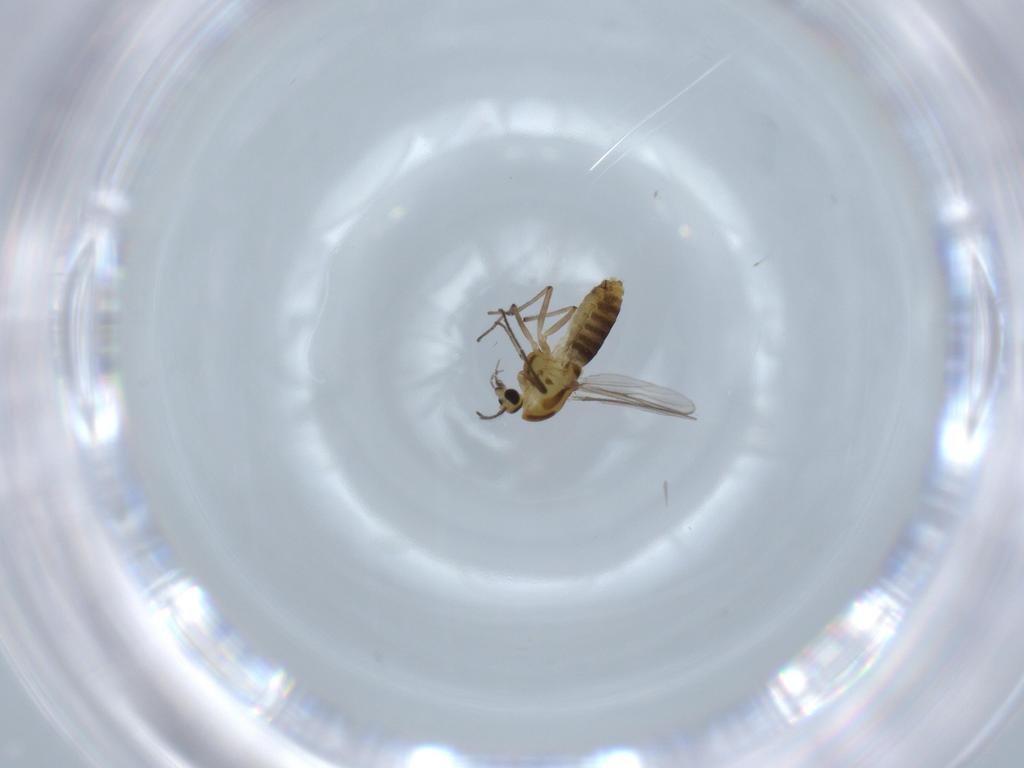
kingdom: Animalia
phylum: Arthropoda
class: Insecta
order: Diptera
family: Chironomidae
